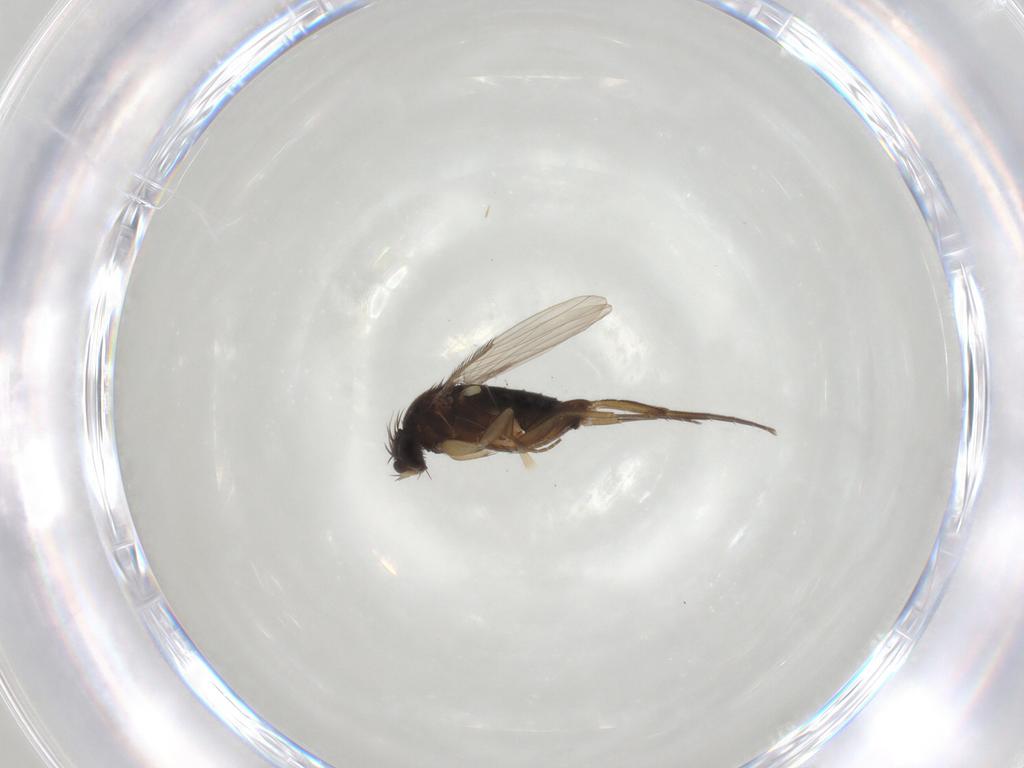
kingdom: Animalia
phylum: Arthropoda
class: Insecta
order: Diptera
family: Phoridae
